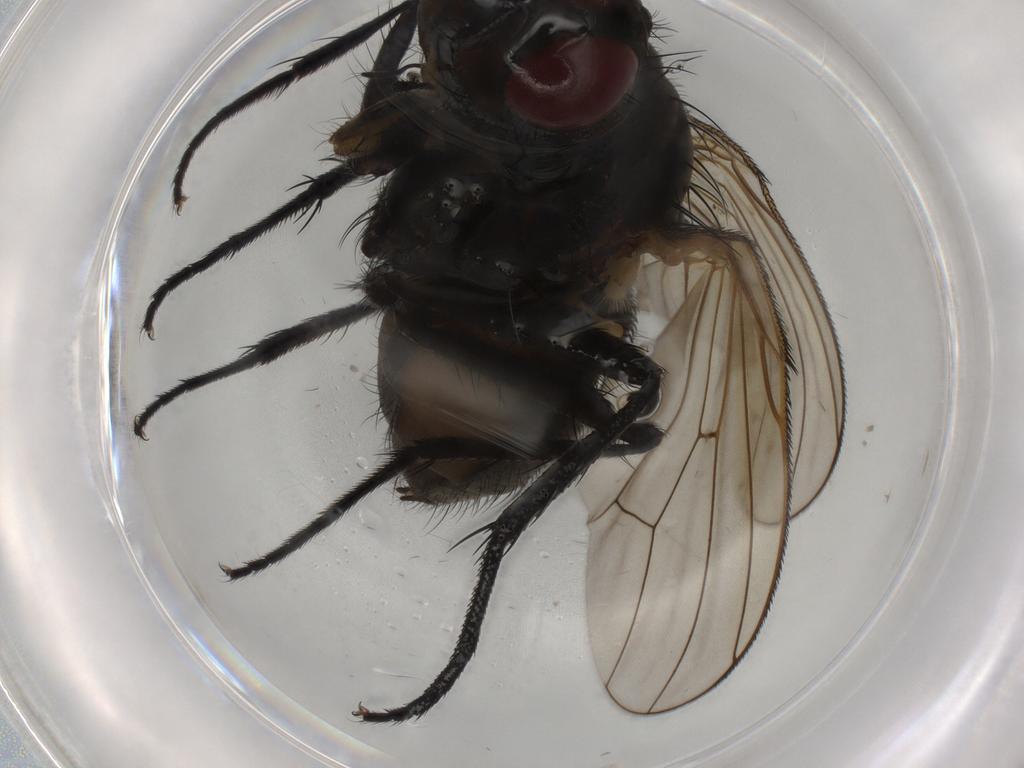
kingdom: Animalia
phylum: Arthropoda
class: Insecta
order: Diptera
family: Anthomyiidae
